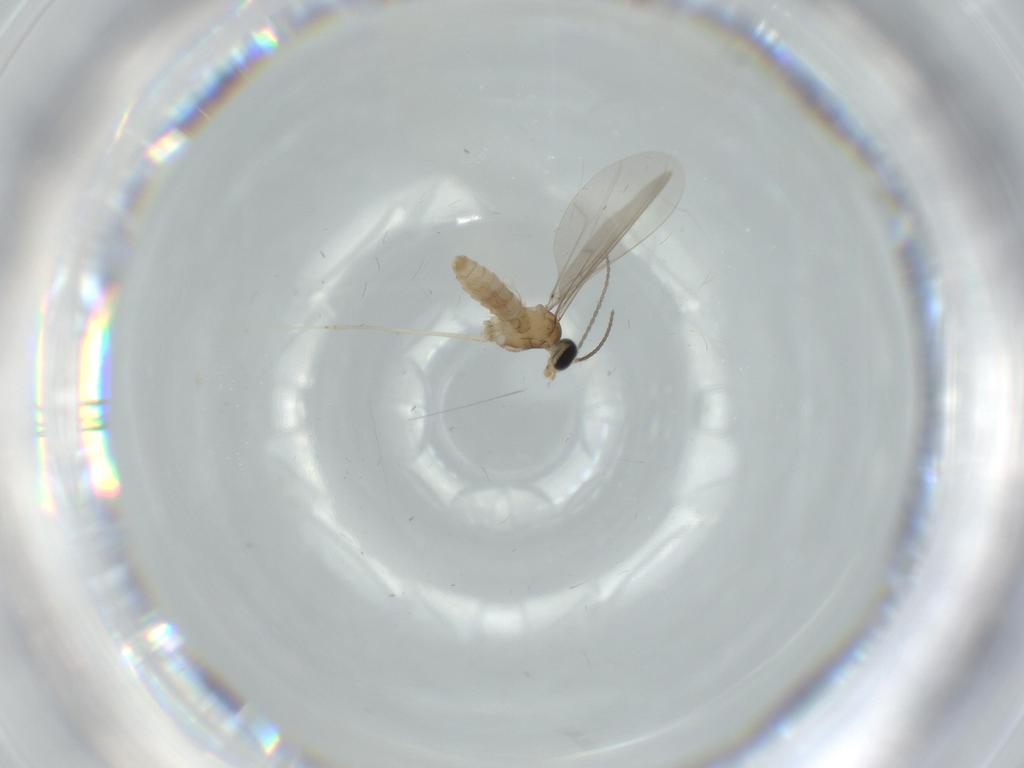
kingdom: Animalia
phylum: Arthropoda
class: Insecta
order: Diptera
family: Cecidomyiidae
